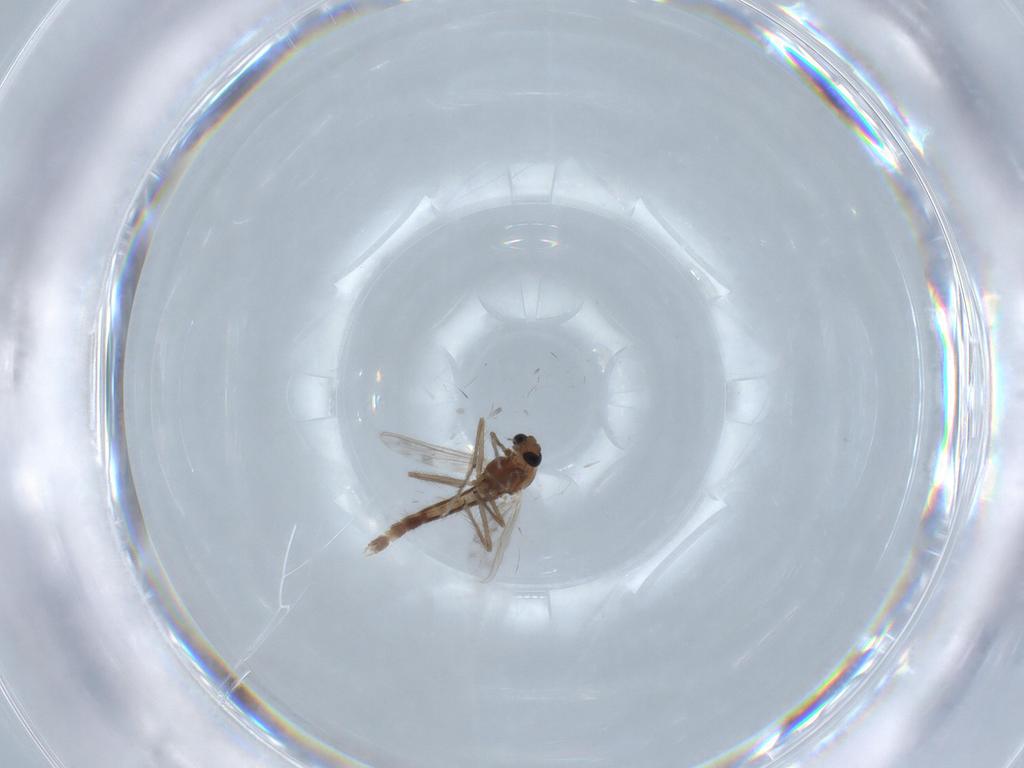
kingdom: Animalia
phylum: Arthropoda
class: Insecta
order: Diptera
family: Chironomidae
